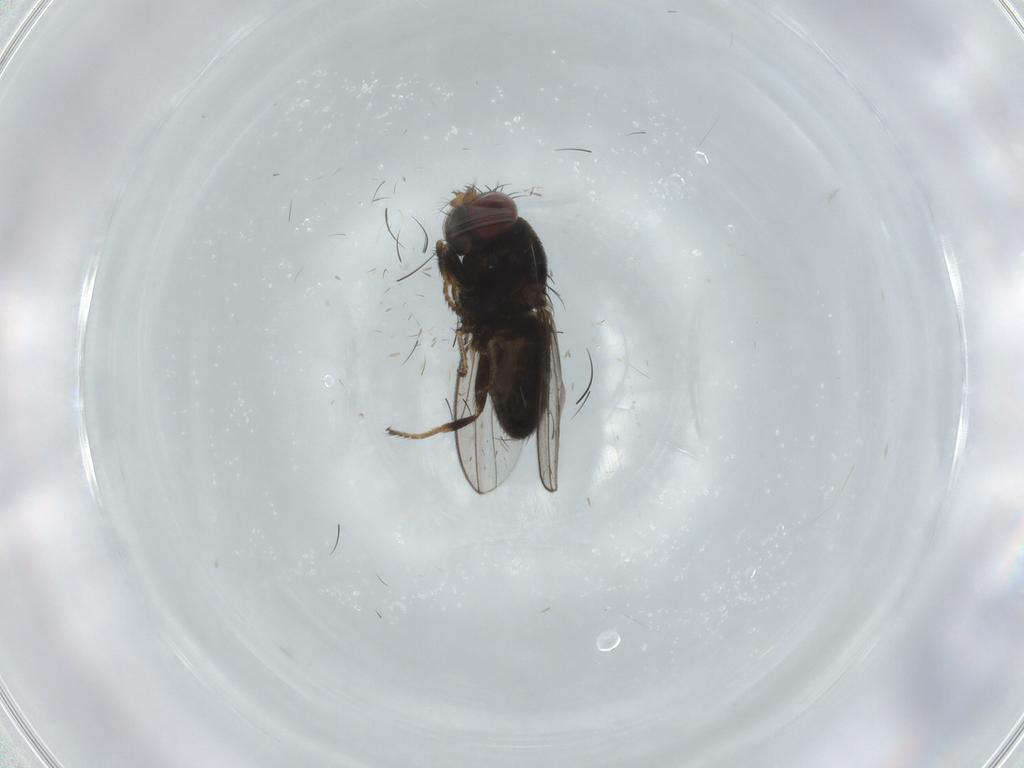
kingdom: Animalia
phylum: Arthropoda
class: Insecta
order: Diptera
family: Ephydridae
